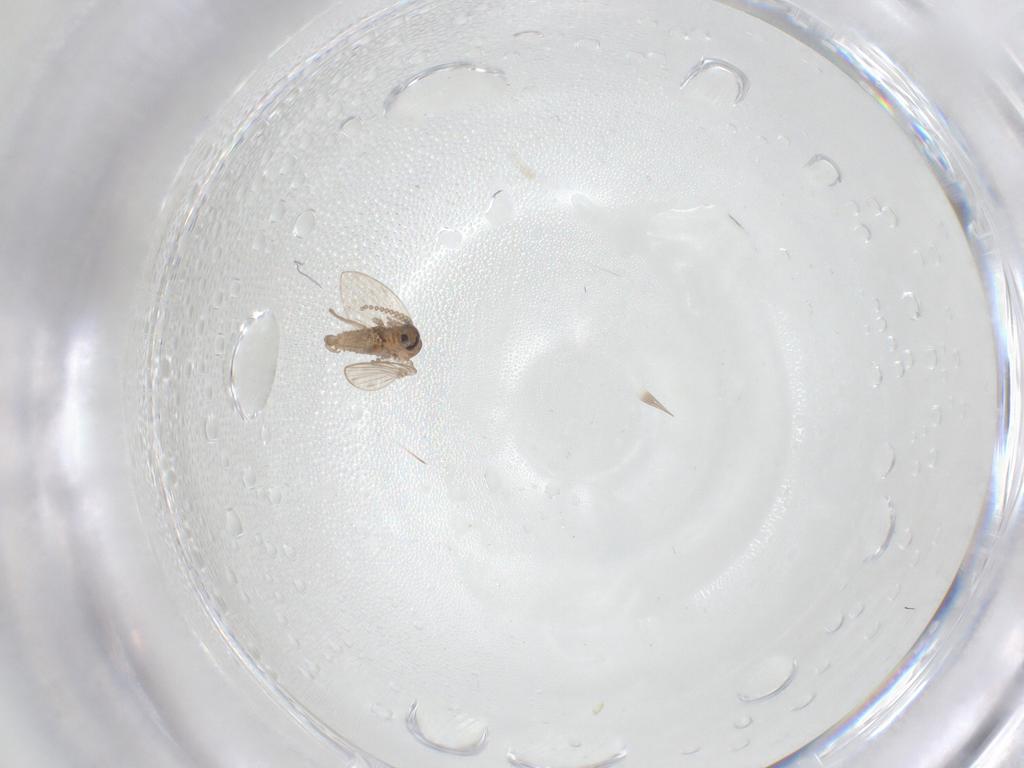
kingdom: Animalia
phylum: Arthropoda
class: Insecta
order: Diptera
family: Cecidomyiidae
